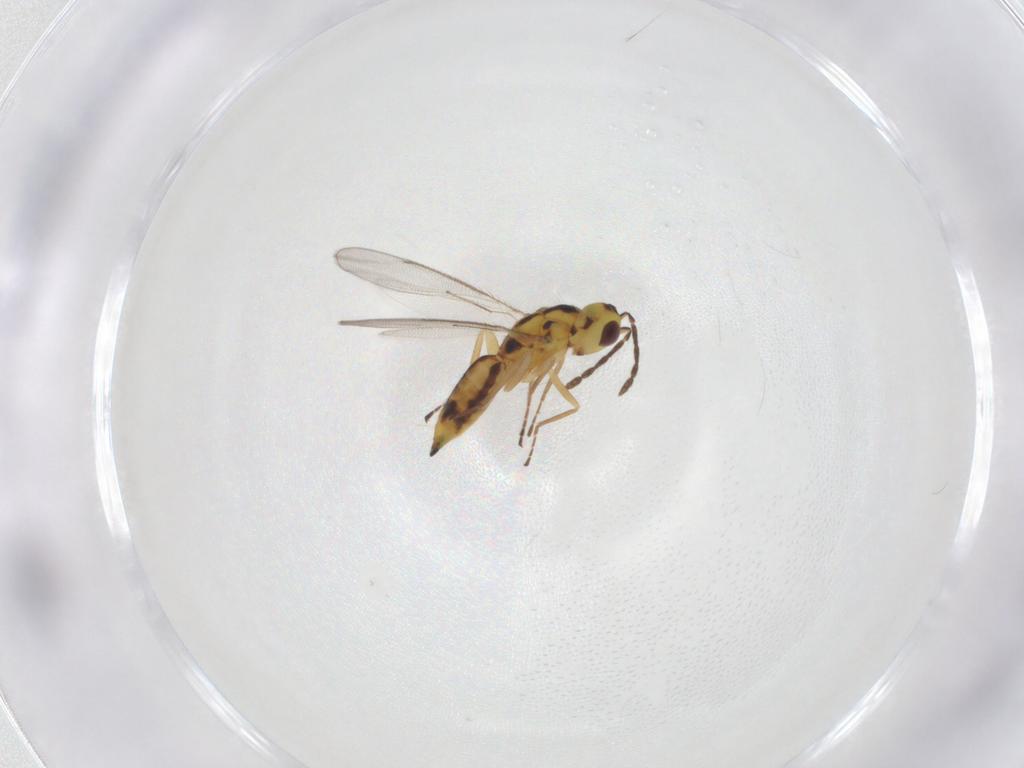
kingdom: Animalia
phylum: Arthropoda
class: Insecta
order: Hymenoptera
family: Eulophidae
